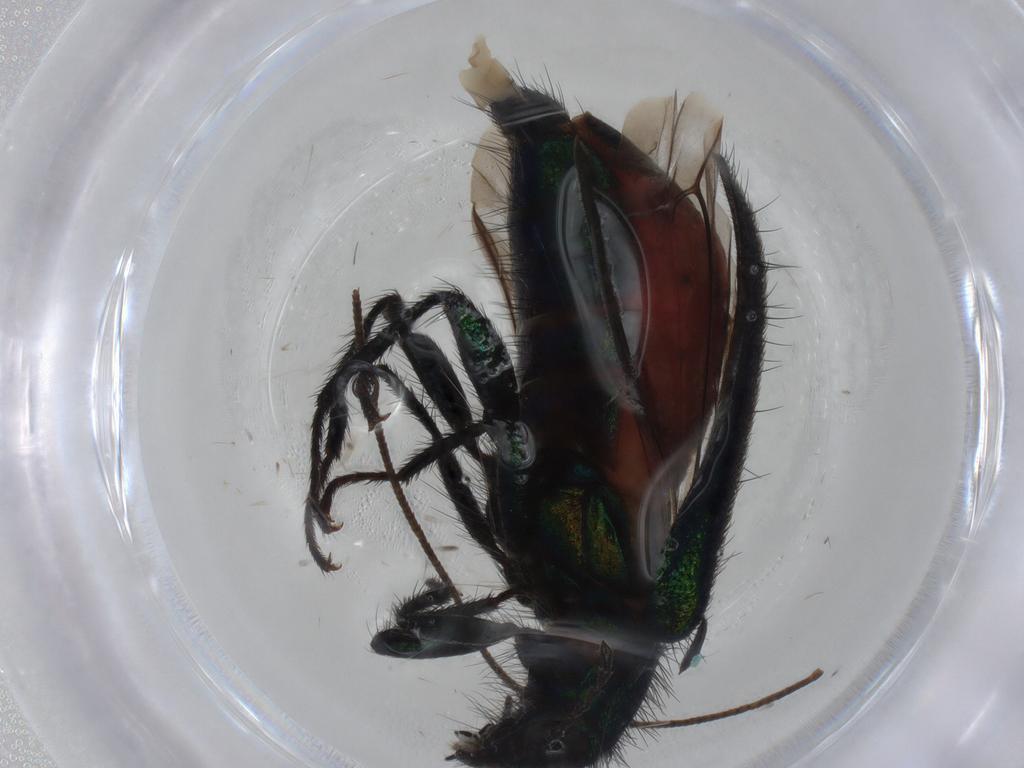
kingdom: Animalia
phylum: Arthropoda
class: Insecta
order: Coleoptera
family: Melyridae
